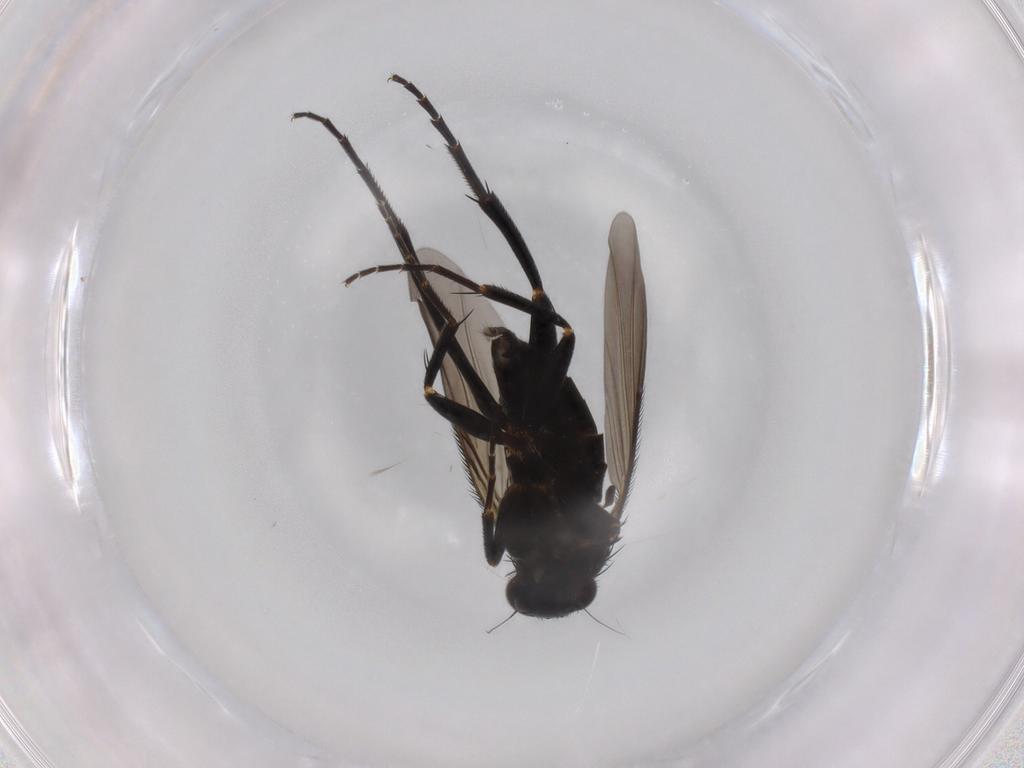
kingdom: Animalia
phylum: Arthropoda
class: Insecta
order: Diptera
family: Phoridae
